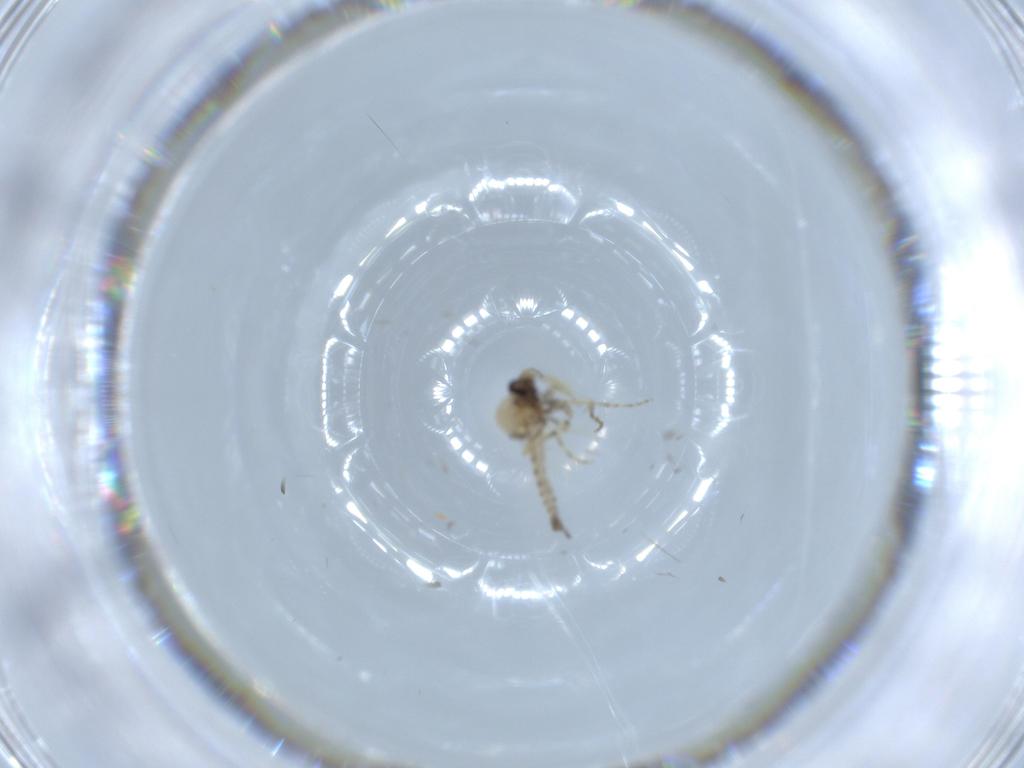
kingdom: Animalia
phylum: Arthropoda
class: Insecta
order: Diptera
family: Ceratopogonidae
